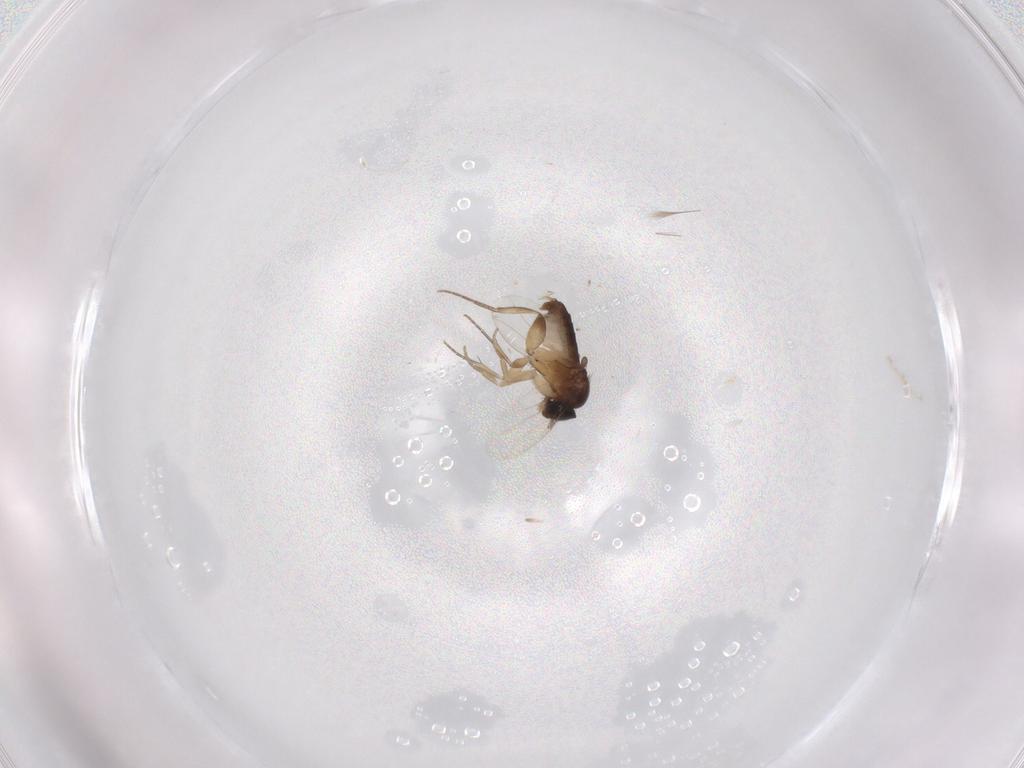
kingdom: Animalia
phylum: Arthropoda
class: Insecta
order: Diptera
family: Phoridae
